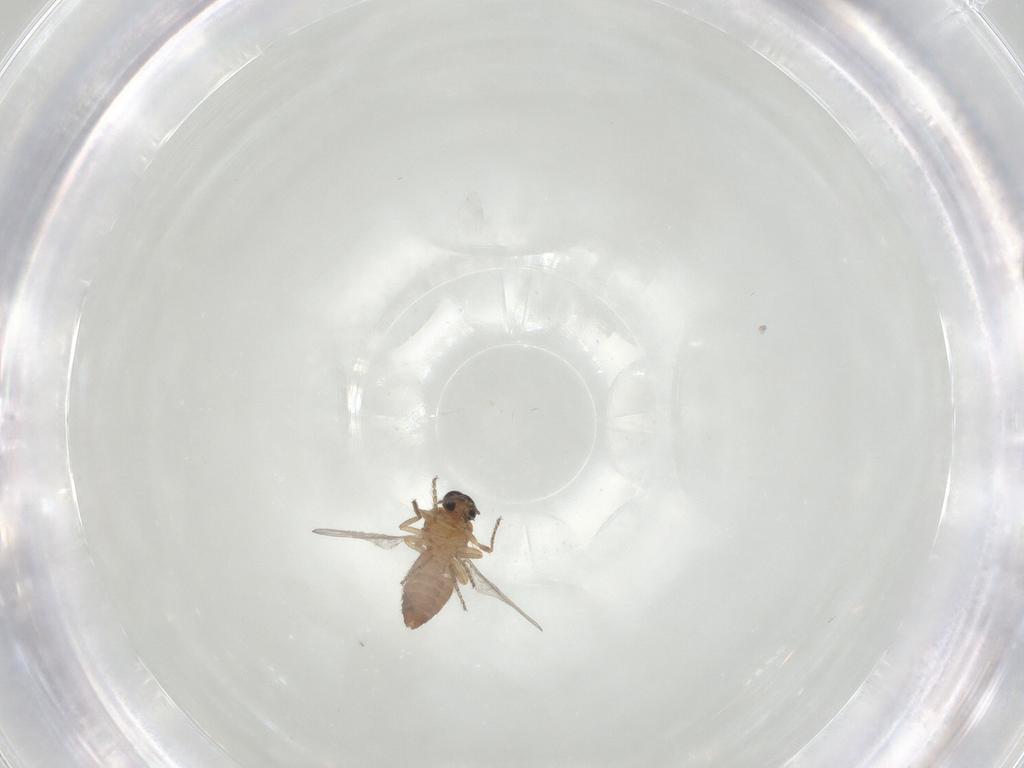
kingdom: Animalia
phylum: Arthropoda
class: Insecta
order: Diptera
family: Ceratopogonidae
